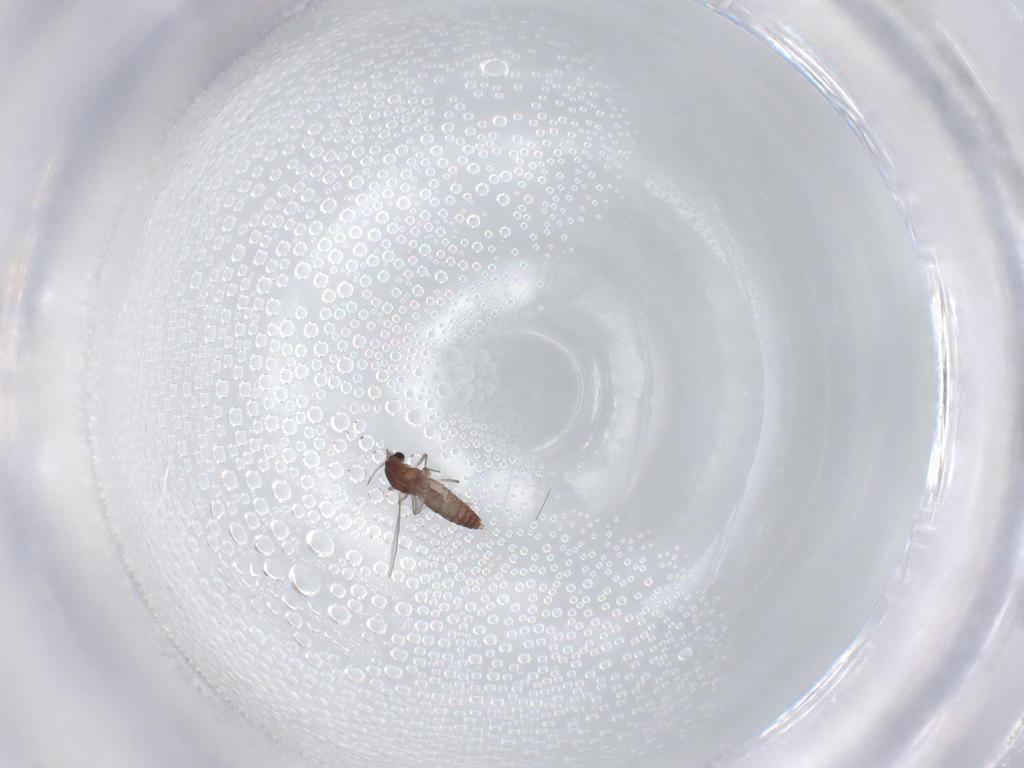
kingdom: Animalia
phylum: Arthropoda
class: Insecta
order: Diptera
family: Chironomidae
